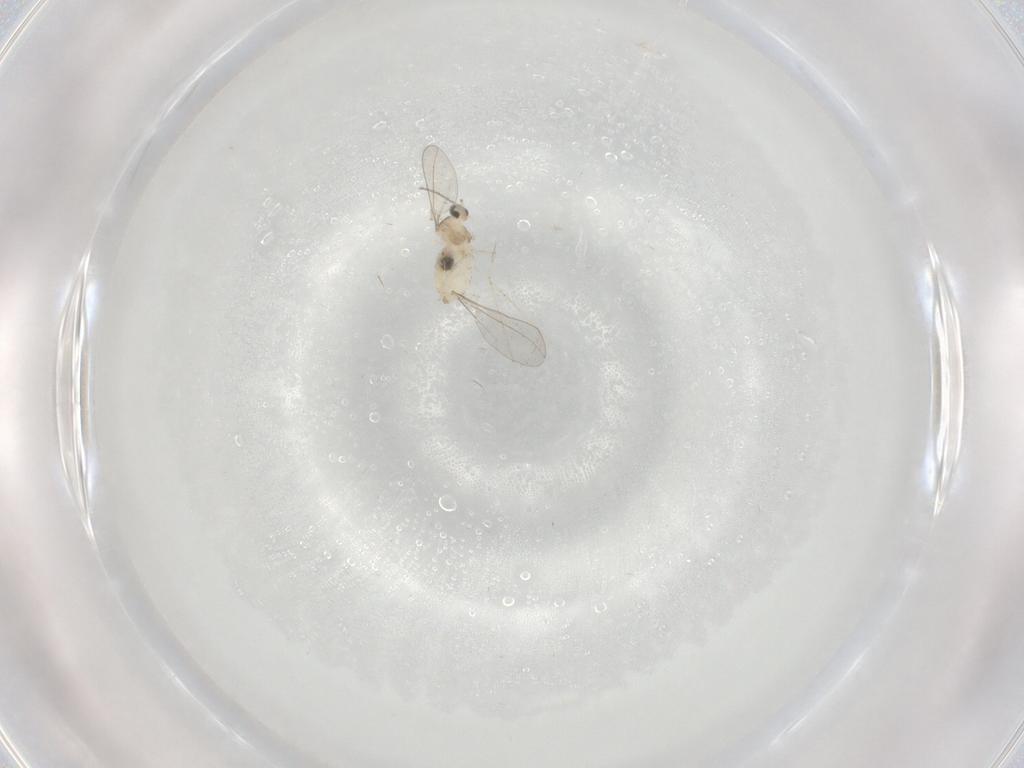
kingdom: Animalia
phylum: Arthropoda
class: Insecta
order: Diptera
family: Cecidomyiidae
